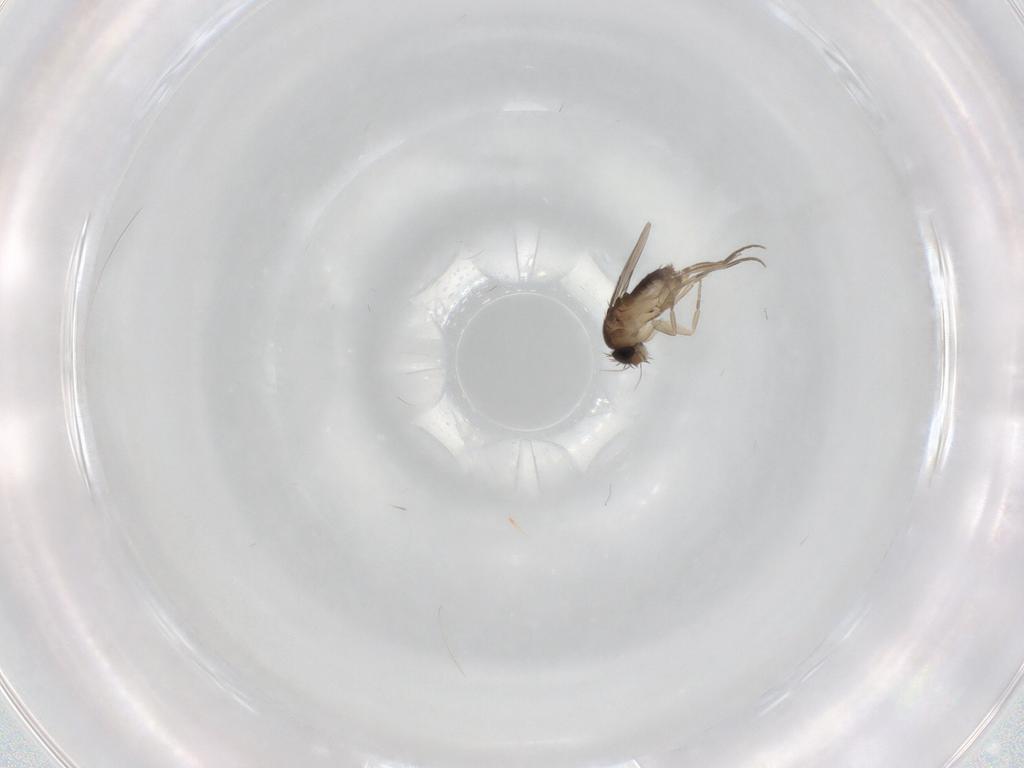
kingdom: Animalia
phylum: Arthropoda
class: Insecta
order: Diptera
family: Phoridae
